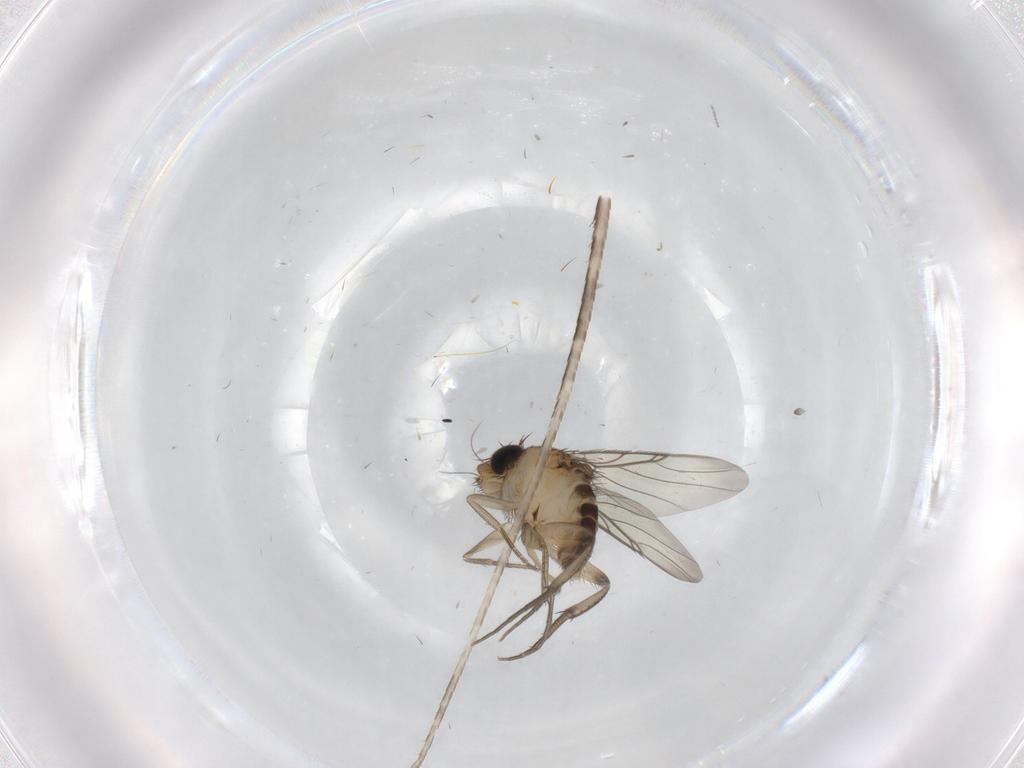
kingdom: Animalia
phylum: Arthropoda
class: Insecta
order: Diptera
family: Phoridae
